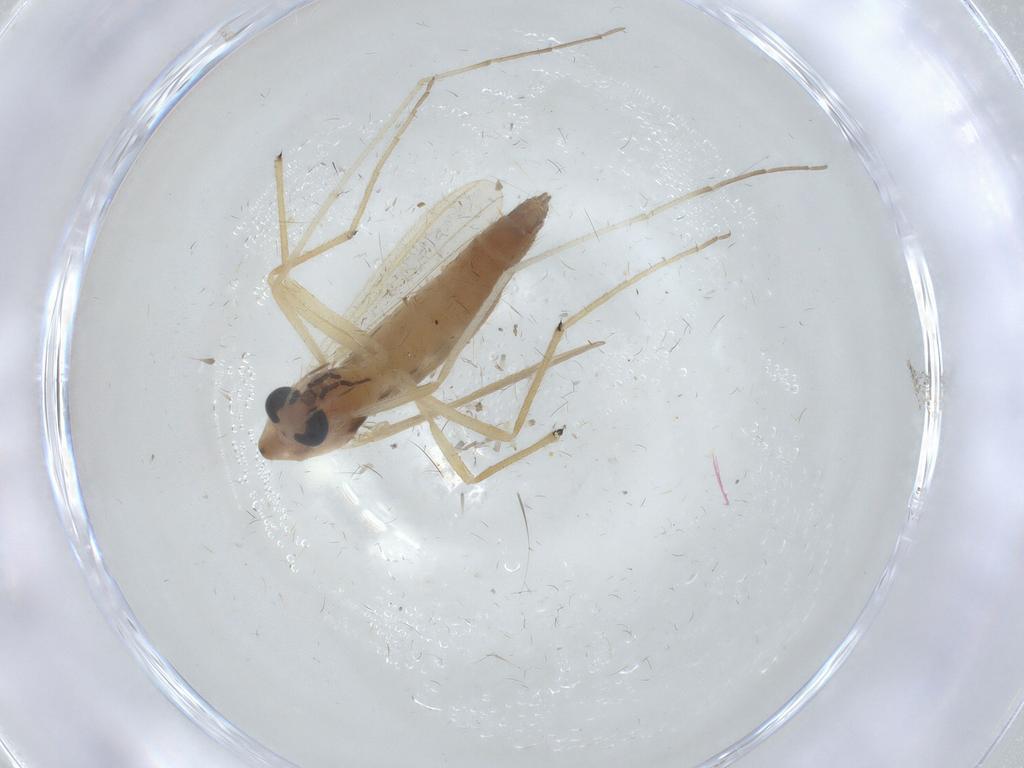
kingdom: Animalia
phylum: Arthropoda
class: Insecta
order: Diptera
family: Chironomidae
